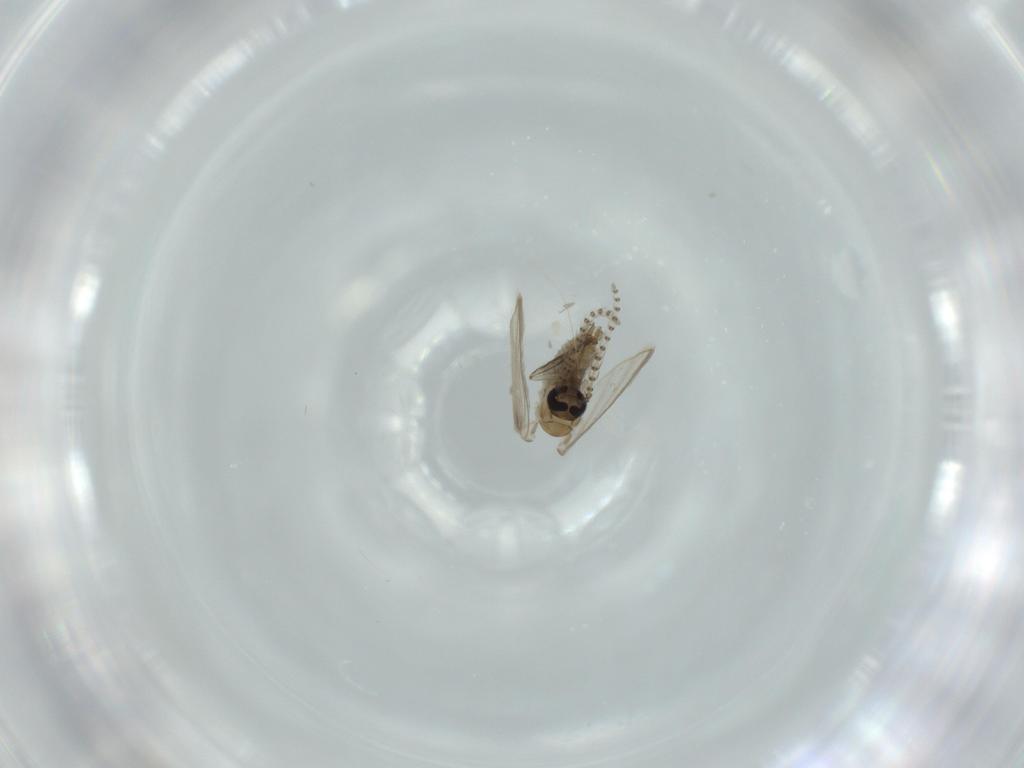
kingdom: Animalia
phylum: Arthropoda
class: Insecta
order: Diptera
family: Psychodidae
